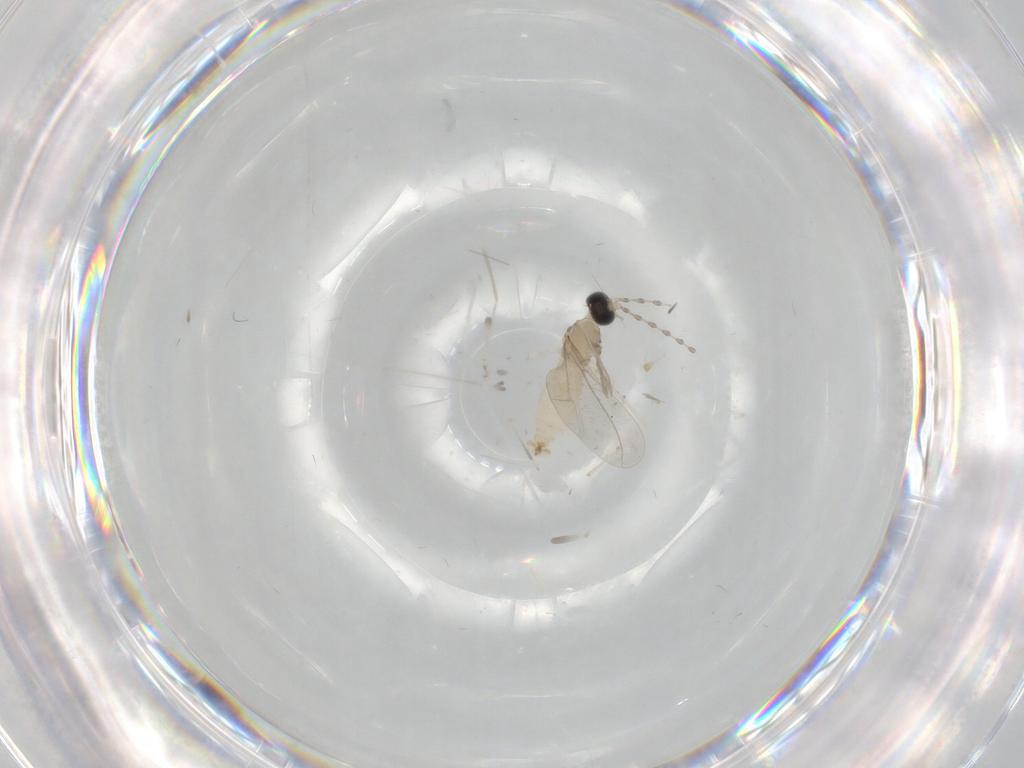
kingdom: Animalia
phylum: Arthropoda
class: Insecta
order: Diptera
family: Cecidomyiidae
